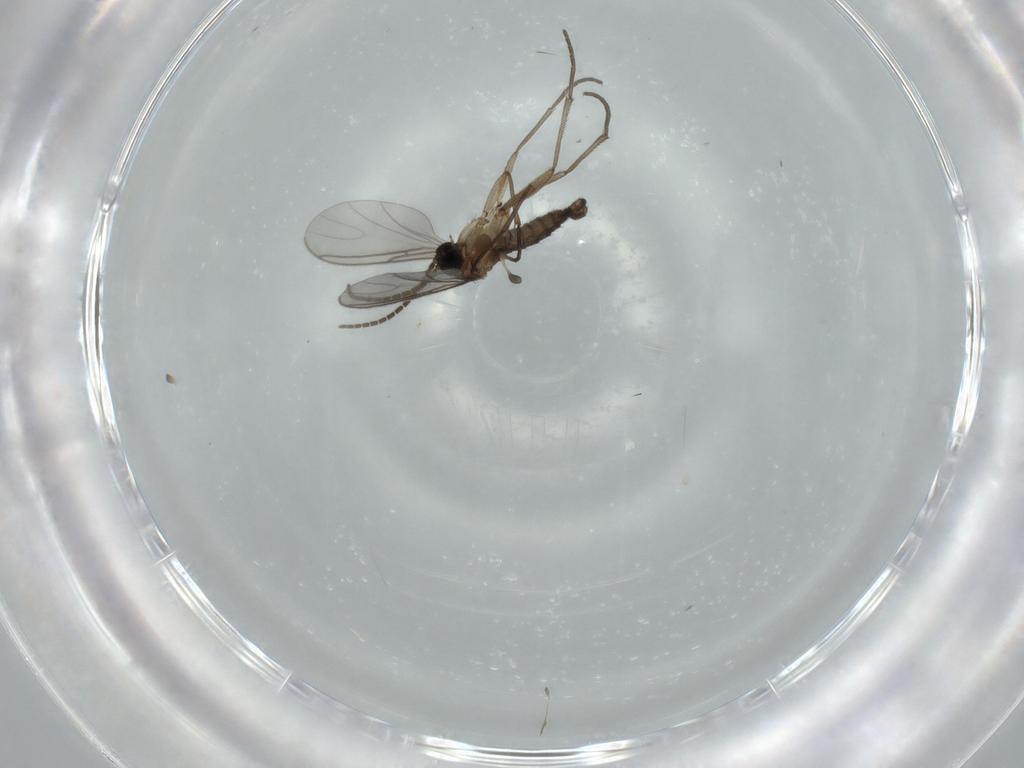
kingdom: Animalia
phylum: Arthropoda
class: Insecta
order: Diptera
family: Sciaridae
